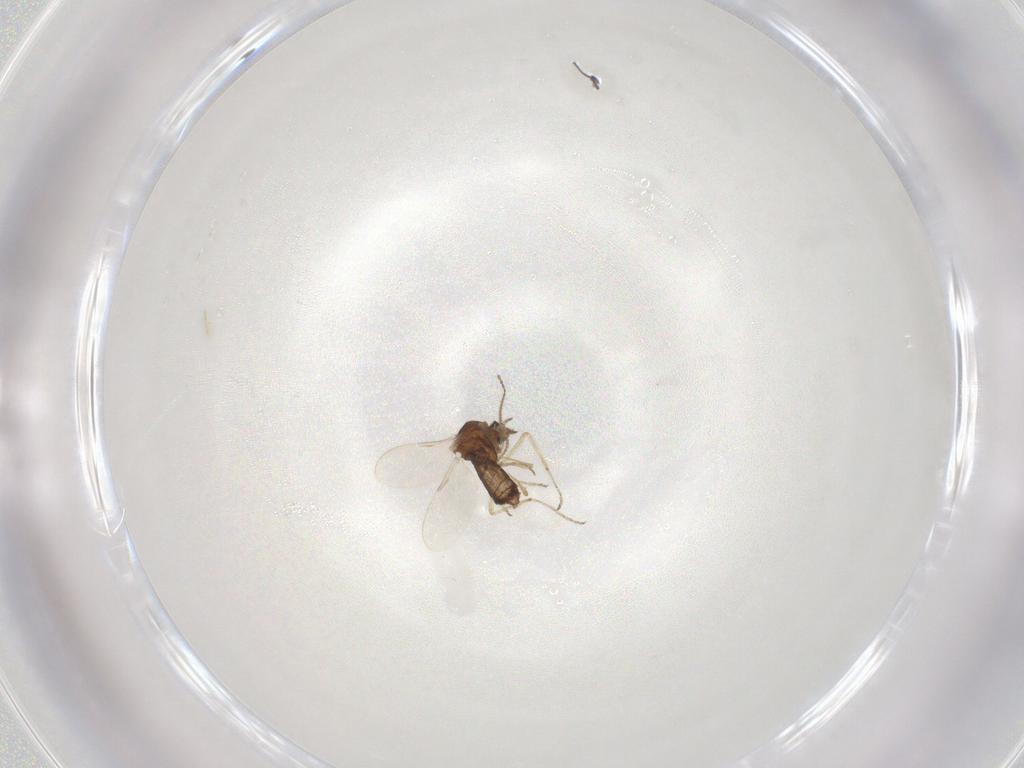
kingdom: Animalia
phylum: Arthropoda
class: Insecta
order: Diptera
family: Ceratopogonidae
